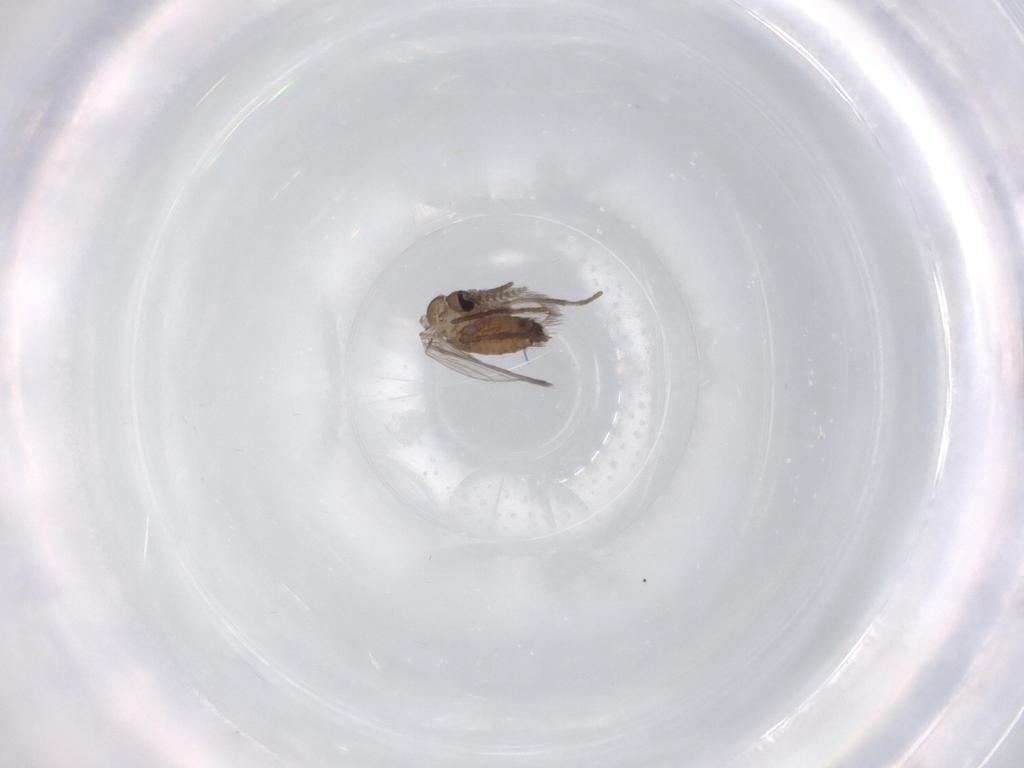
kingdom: Animalia
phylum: Arthropoda
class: Insecta
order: Diptera
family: Psychodidae
